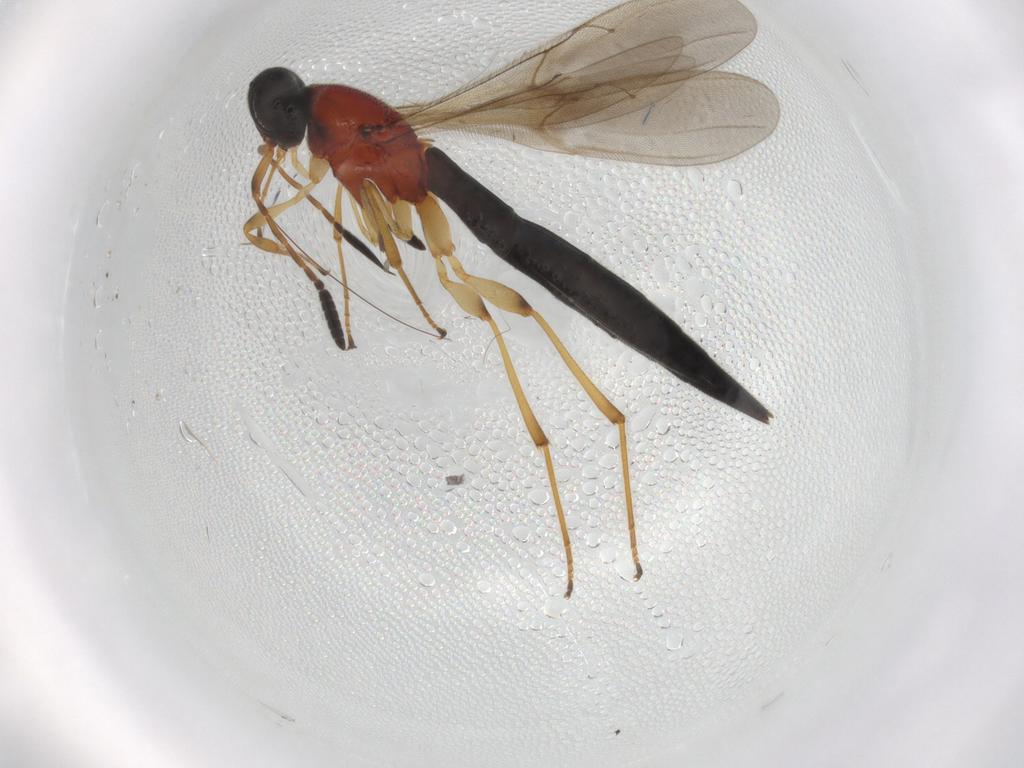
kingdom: Animalia
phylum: Arthropoda
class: Insecta
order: Hymenoptera
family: Scelionidae
